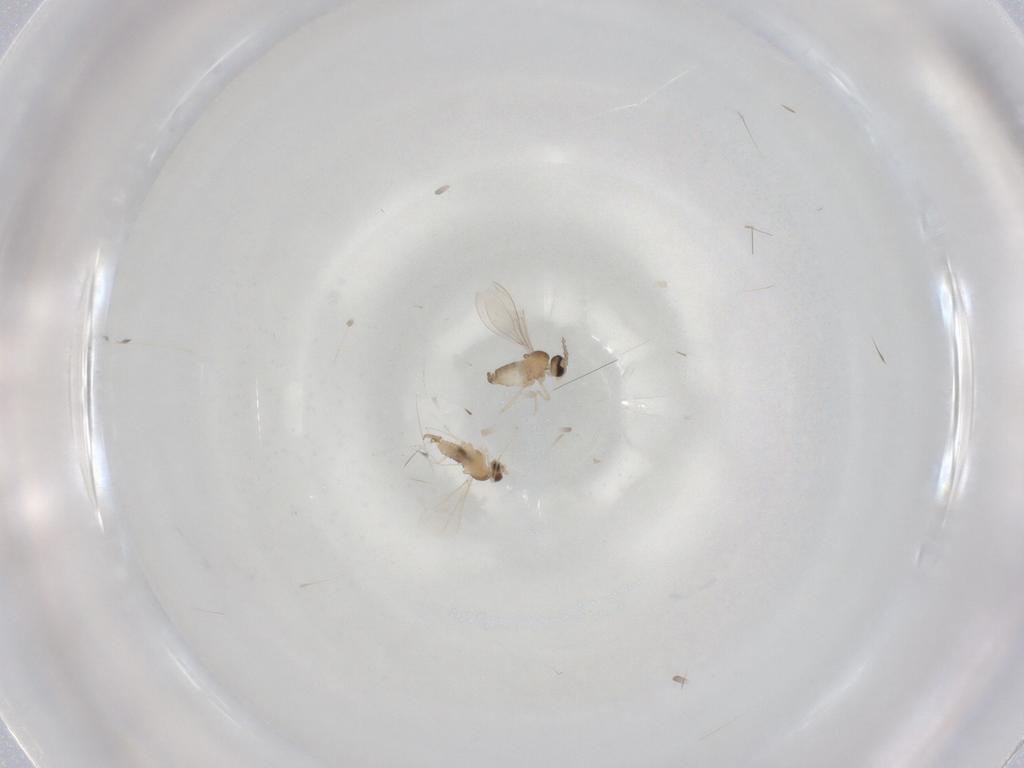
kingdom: Animalia
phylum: Arthropoda
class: Insecta
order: Diptera
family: Cecidomyiidae
